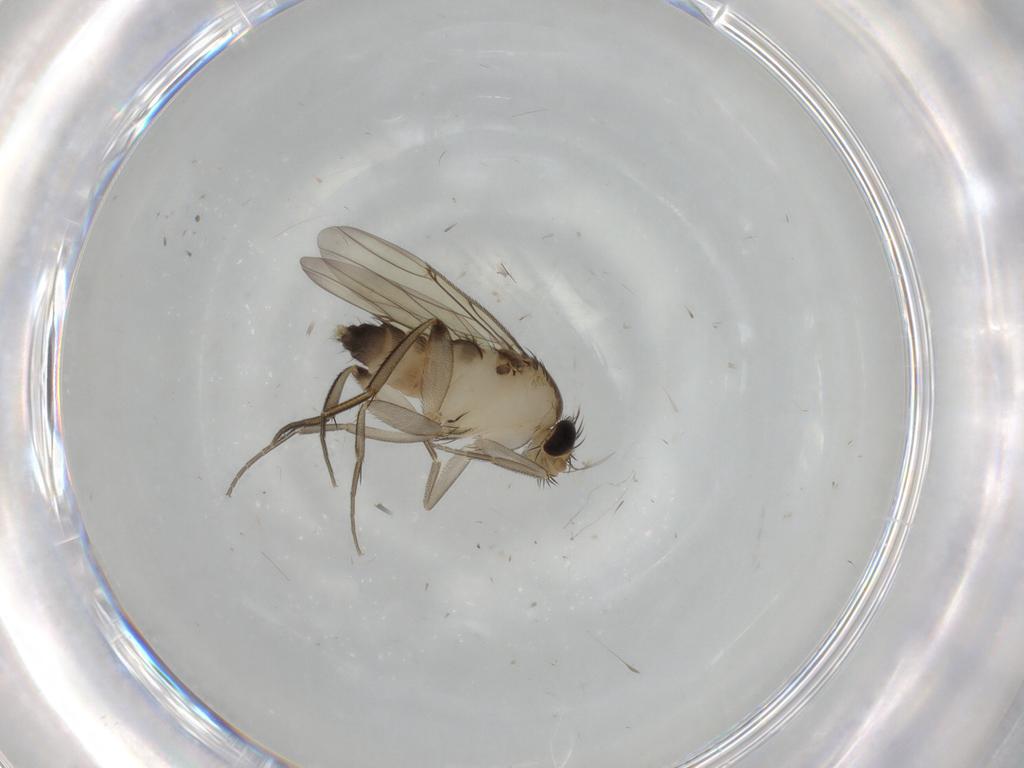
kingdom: Animalia
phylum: Arthropoda
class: Insecta
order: Diptera
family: Phoridae
